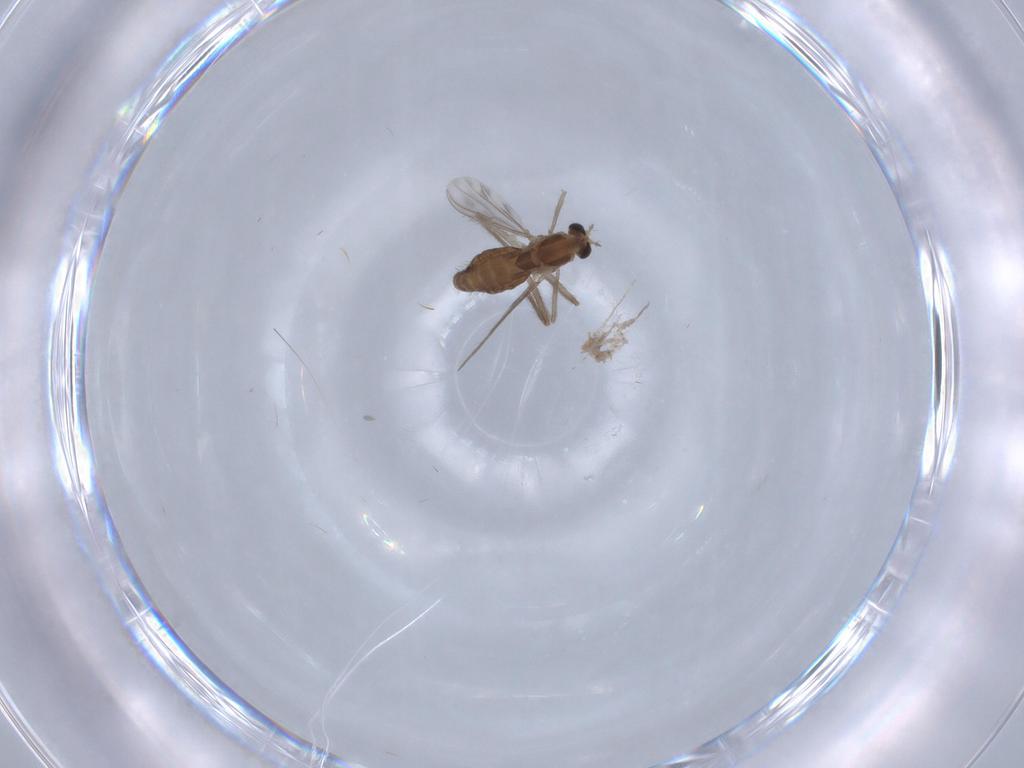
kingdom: Animalia
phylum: Arthropoda
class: Insecta
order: Diptera
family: Chironomidae
